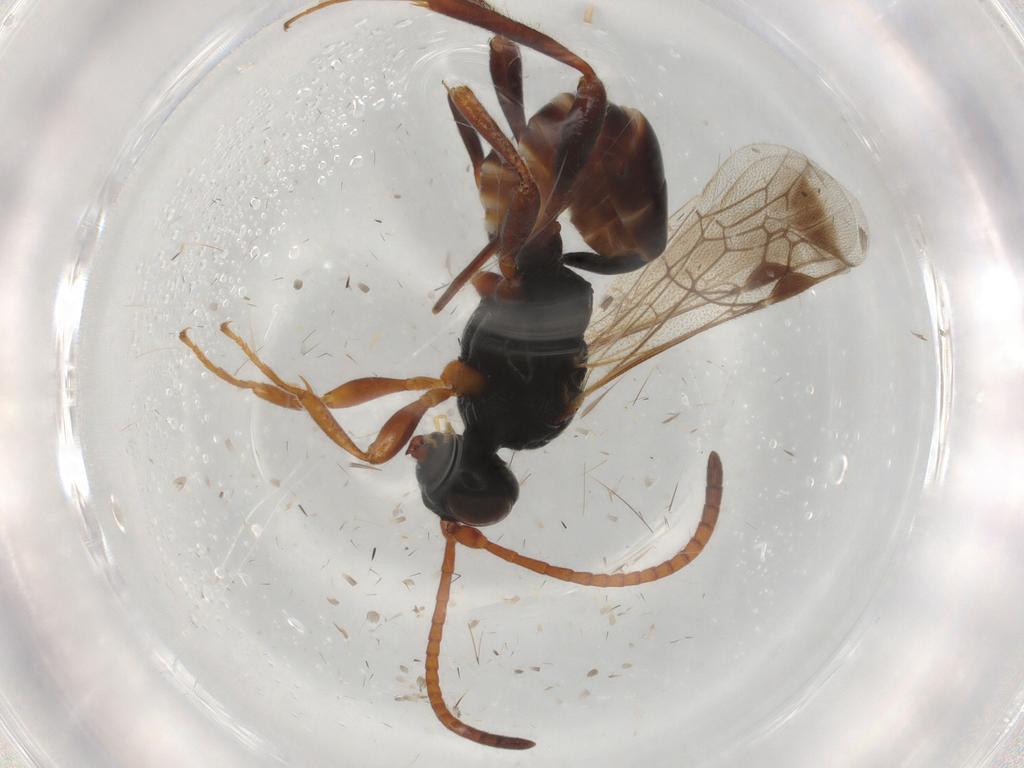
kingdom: Animalia
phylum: Arthropoda
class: Insecta
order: Hymenoptera
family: Ichneumonidae
